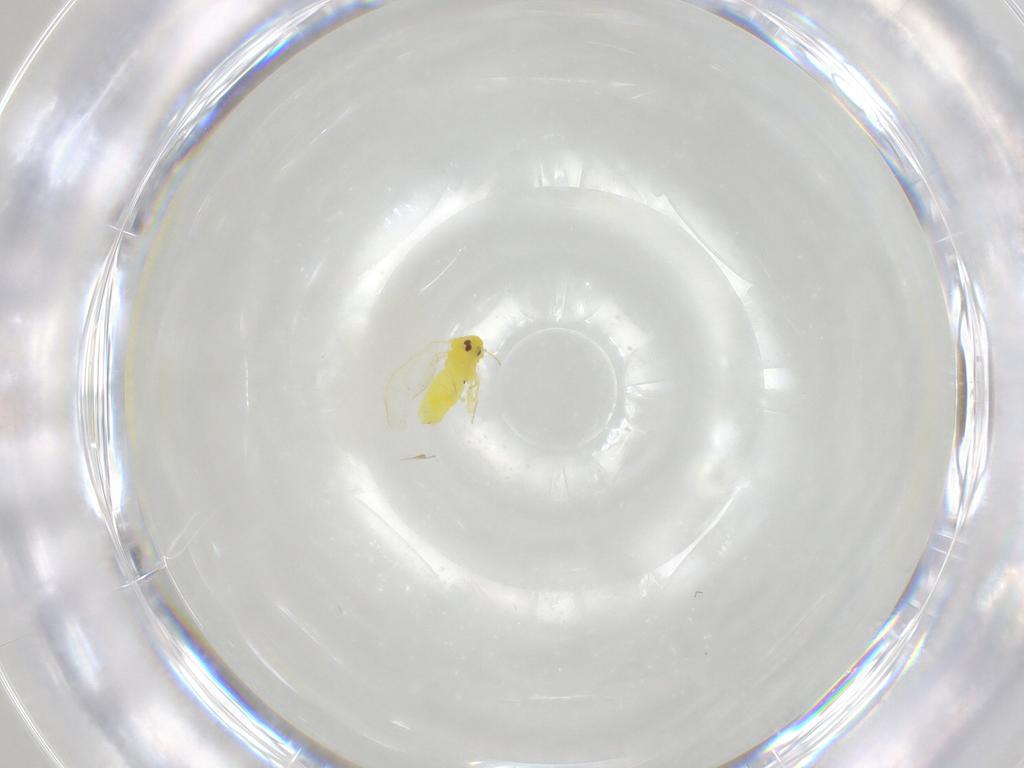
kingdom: Animalia
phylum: Arthropoda
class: Insecta
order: Hemiptera
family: Aleyrodidae
